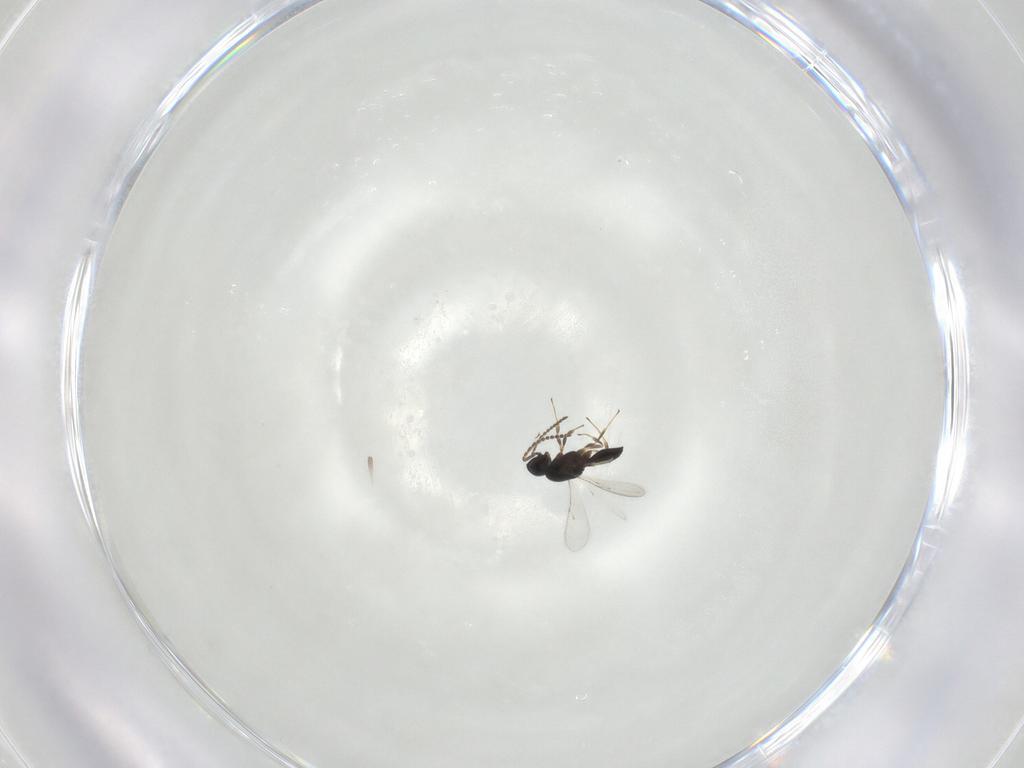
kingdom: Animalia
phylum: Arthropoda
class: Insecta
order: Hymenoptera
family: Scelionidae
